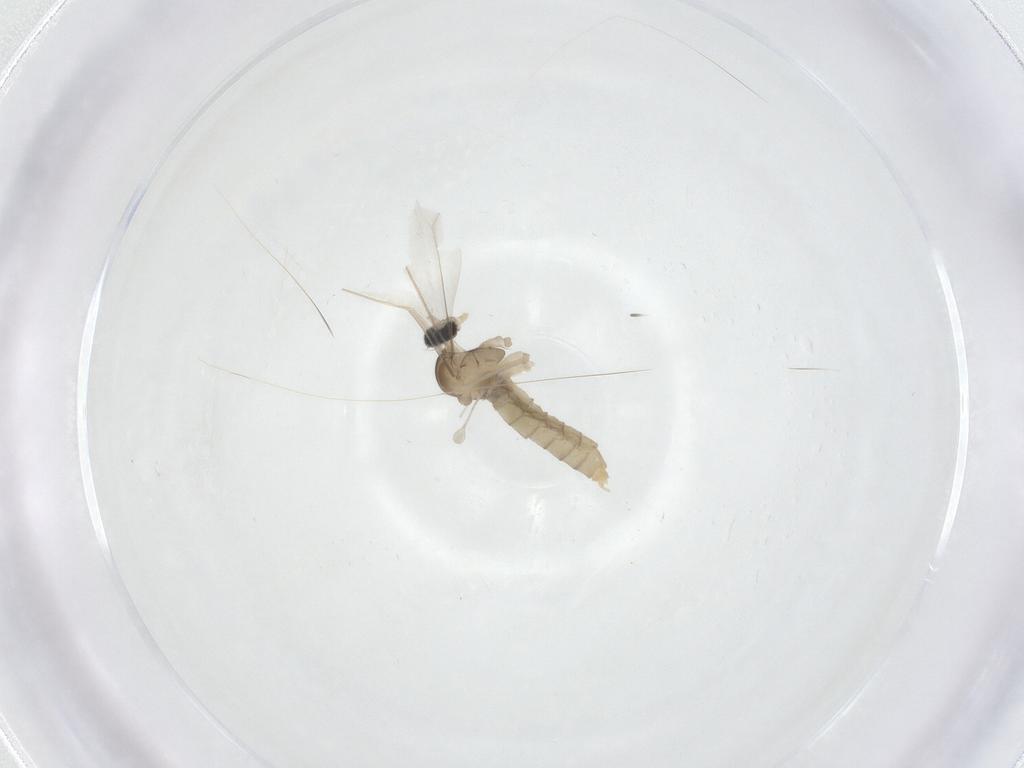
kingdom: Animalia
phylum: Arthropoda
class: Insecta
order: Diptera
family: Cecidomyiidae
